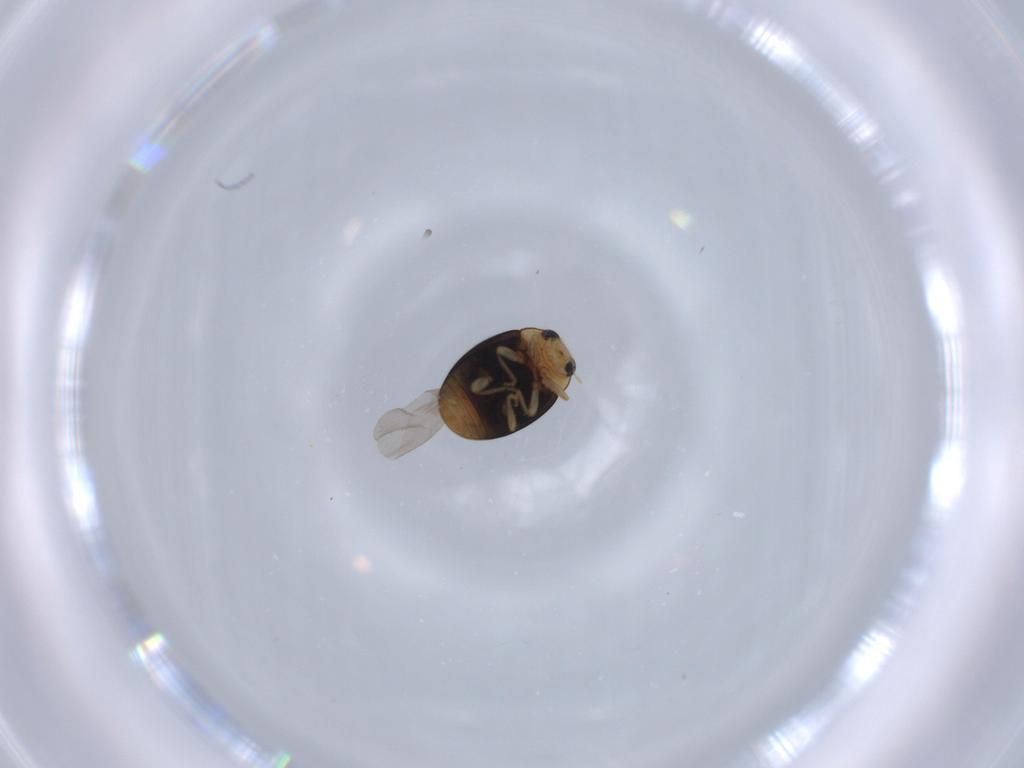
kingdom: Animalia
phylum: Arthropoda
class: Insecta
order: Coleoptera
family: Coccinellidae
